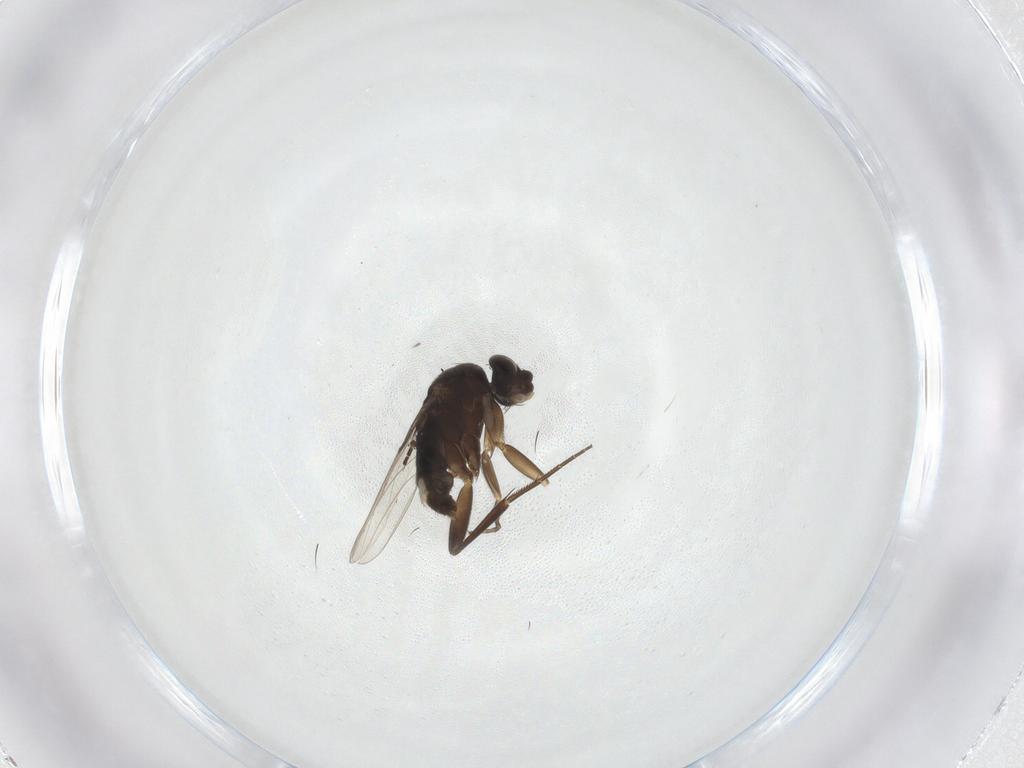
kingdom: Animalia
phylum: Arthropoda
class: Insecta
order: Diptera
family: Phoridae
